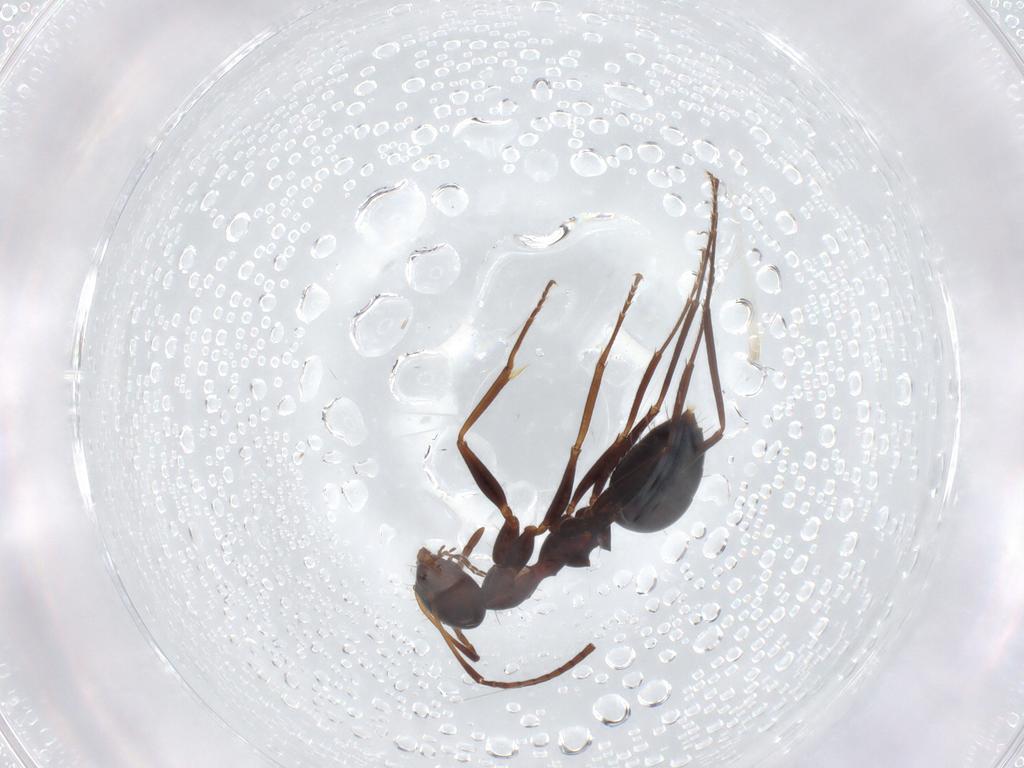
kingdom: Animalia
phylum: Arthropoda
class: Insecta
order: Hymenoptera
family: Formicidae
